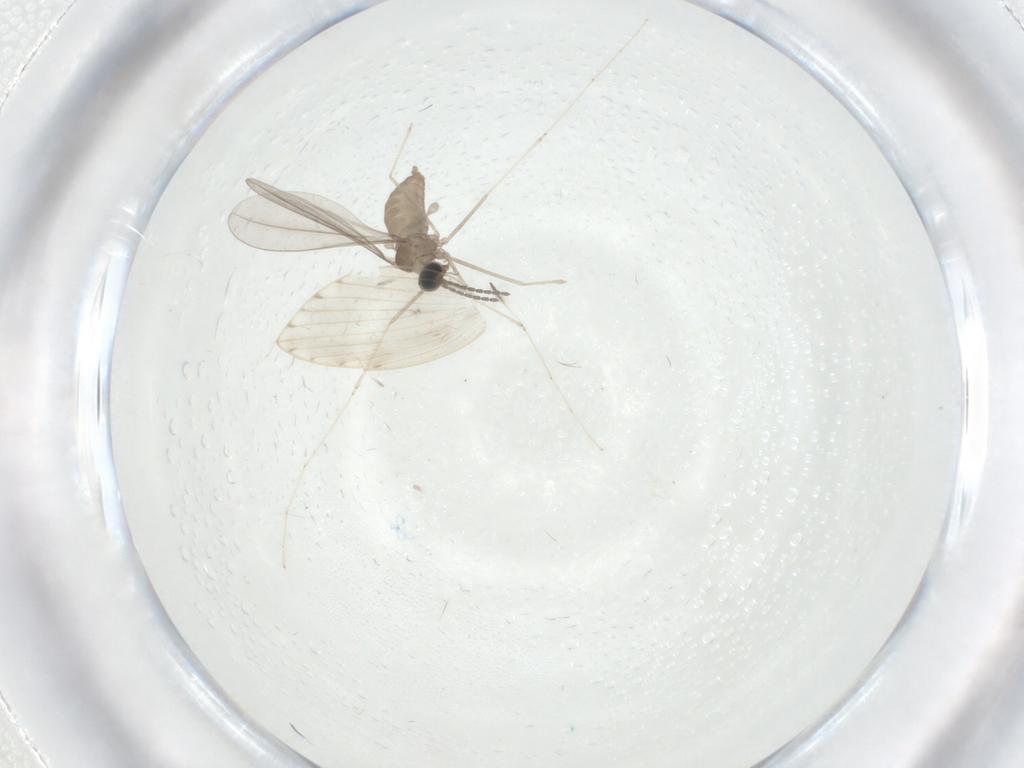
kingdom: Animalia
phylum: Arthropoda
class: Insecta
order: Diptera
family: Cecidomyiidae
